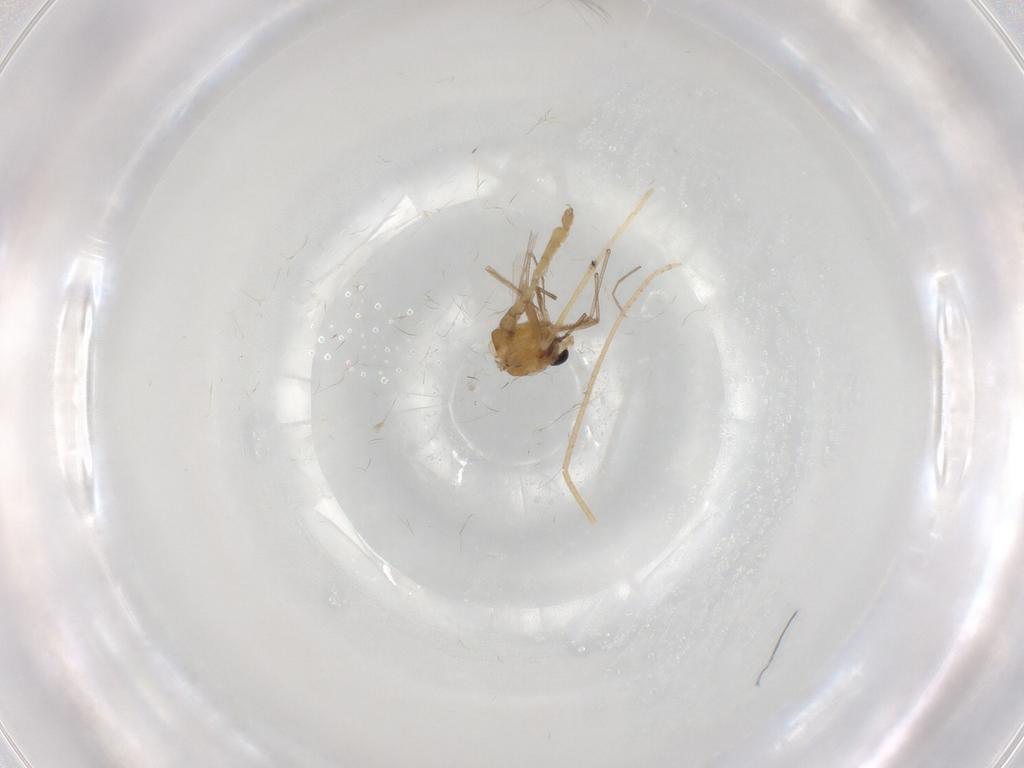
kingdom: Animalia
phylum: Arthropoda
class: Insecta
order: Diptera
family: Chironomidae
